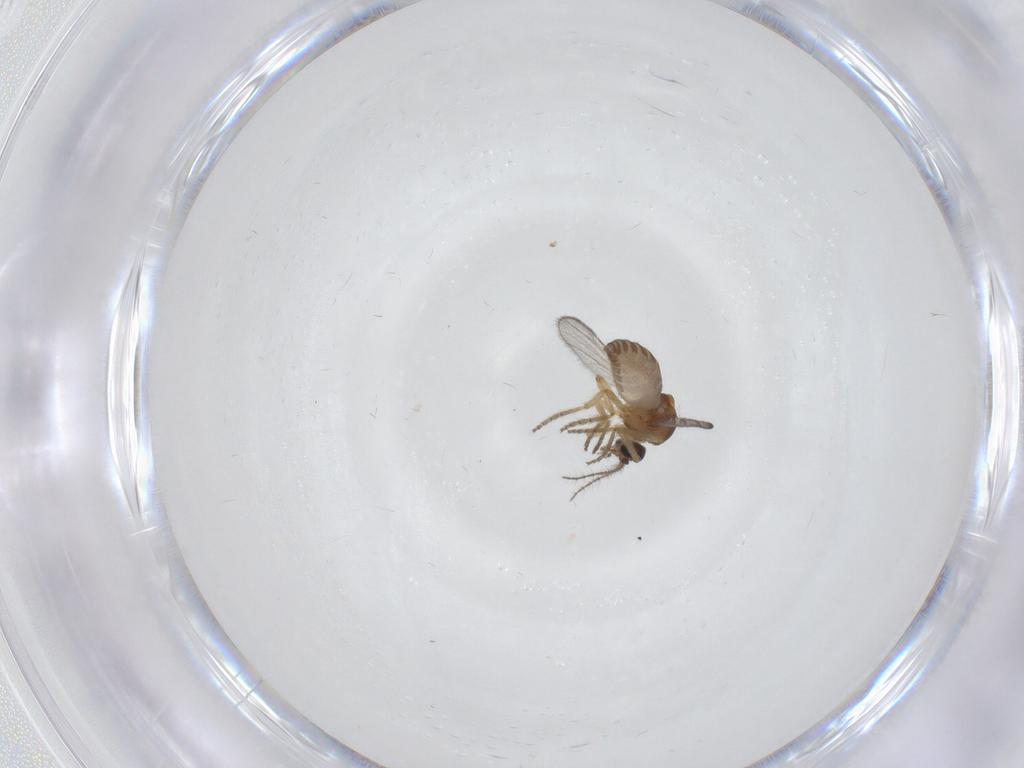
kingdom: Animalia
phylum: Arthropoda
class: Insecta
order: Diptera
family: Ceratopogonidae
